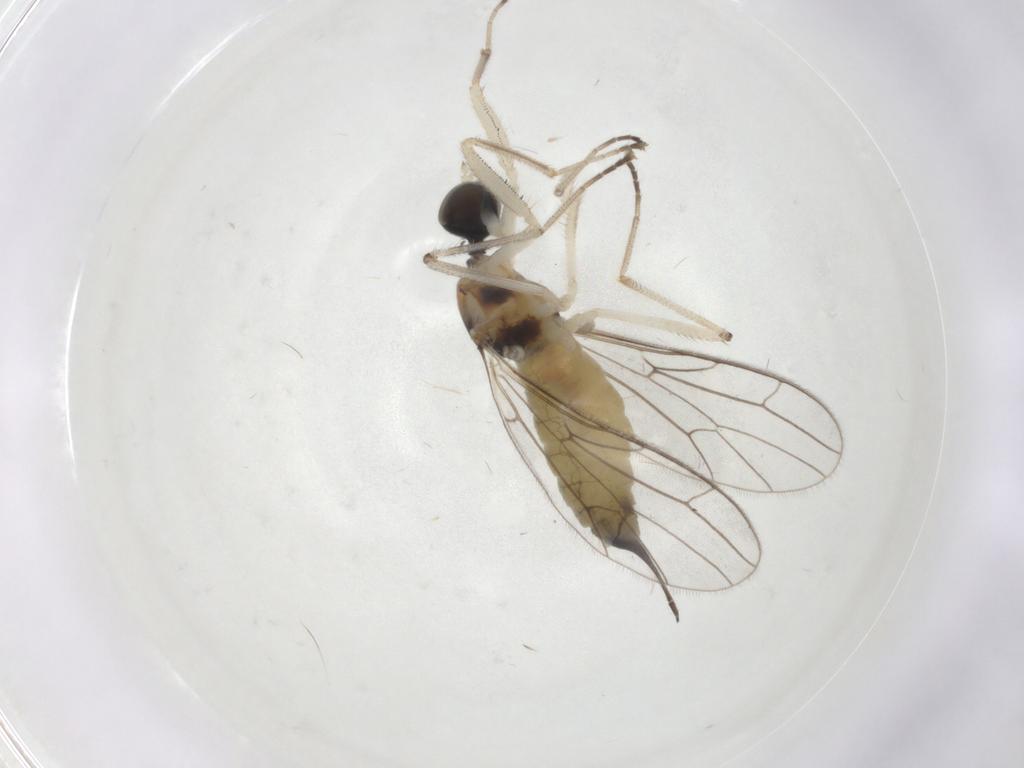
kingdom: Animalia
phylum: Arthropoda
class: Insecta
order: Diptera
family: Empididae
